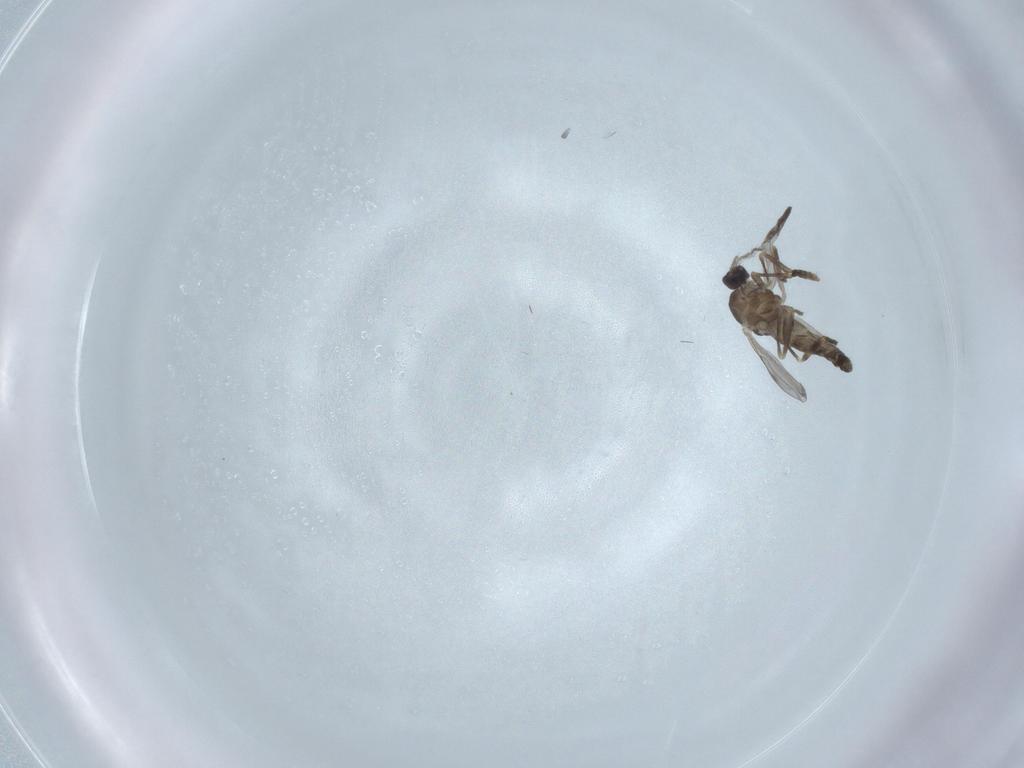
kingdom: Animalia
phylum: Arthropoda
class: Insecta
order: Diptera
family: Ceratopogonidae
